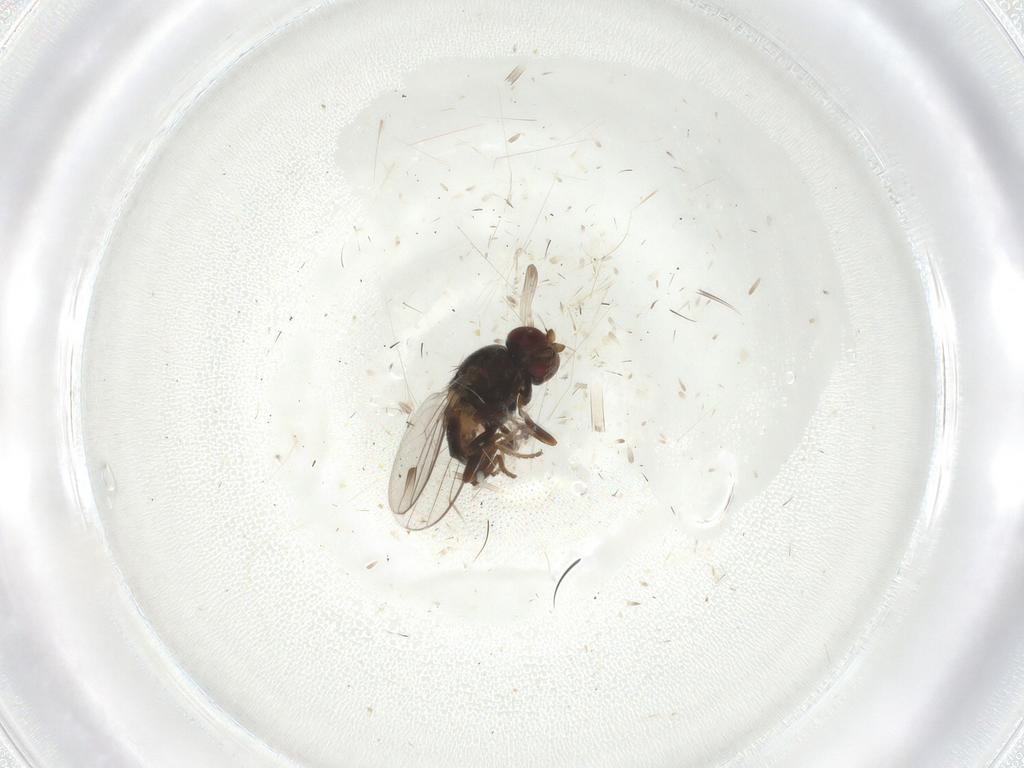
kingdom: Animalia
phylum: Arthropoda
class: Insecta
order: Diptera
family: Chloropidae
